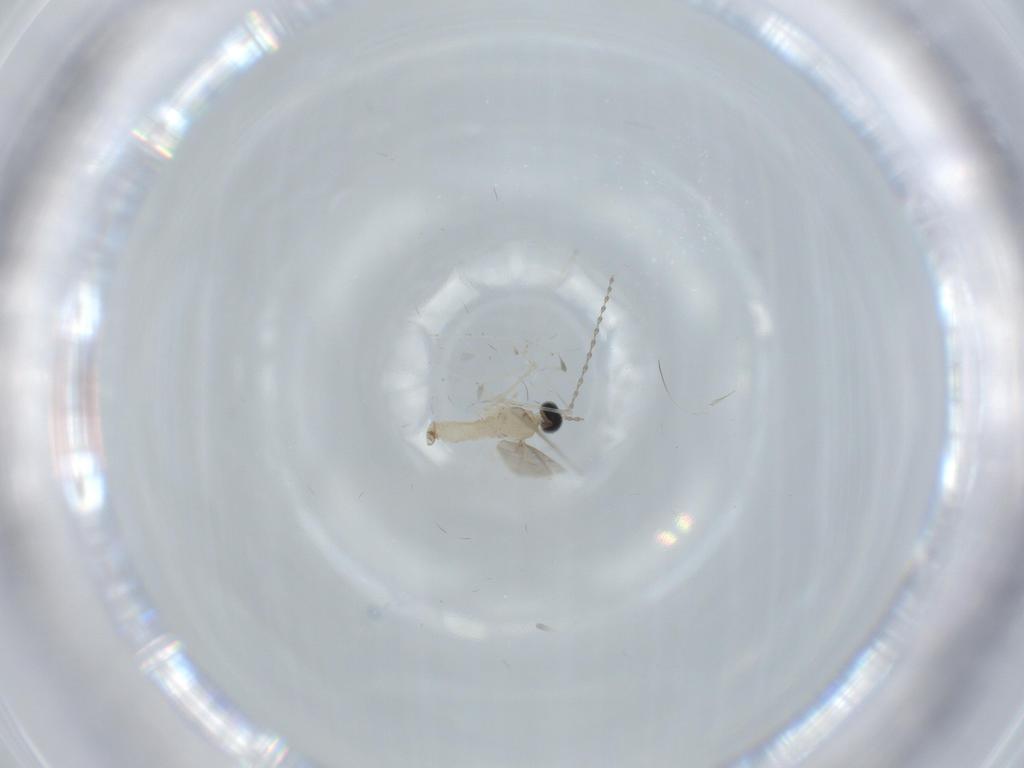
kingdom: Animalia
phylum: Arthropoda
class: Insecta
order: Diptera
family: Cecidomyiidae
